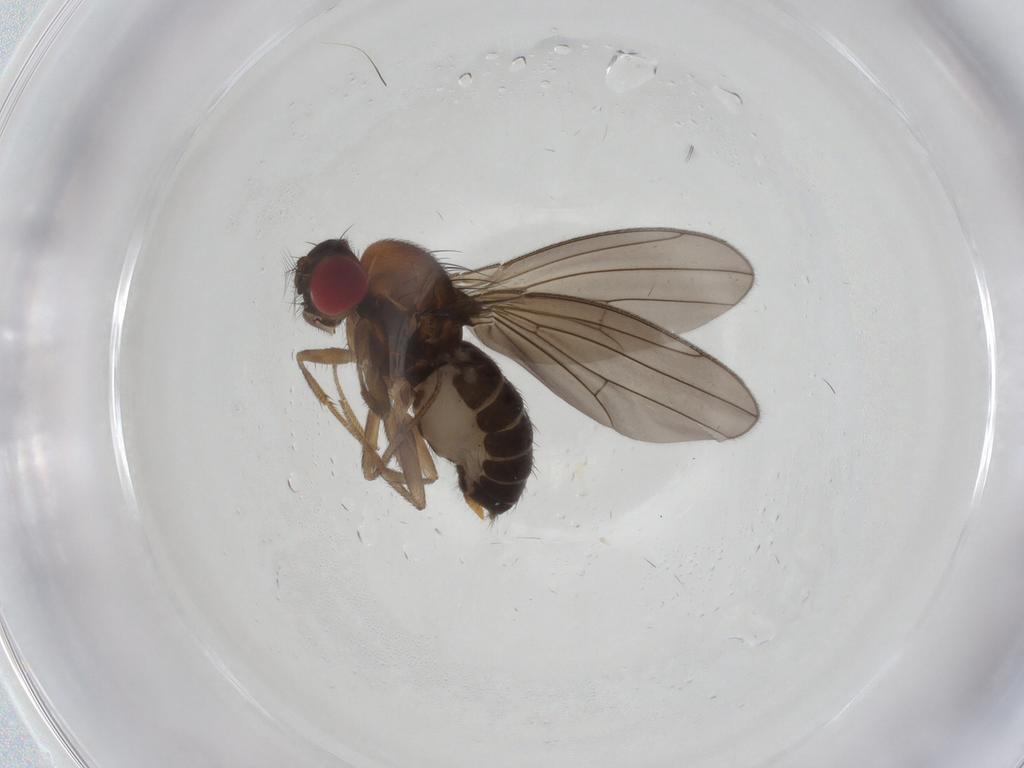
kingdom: Animalia
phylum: Arthropoda
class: Insecta
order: Diptera
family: Drosophilidae
